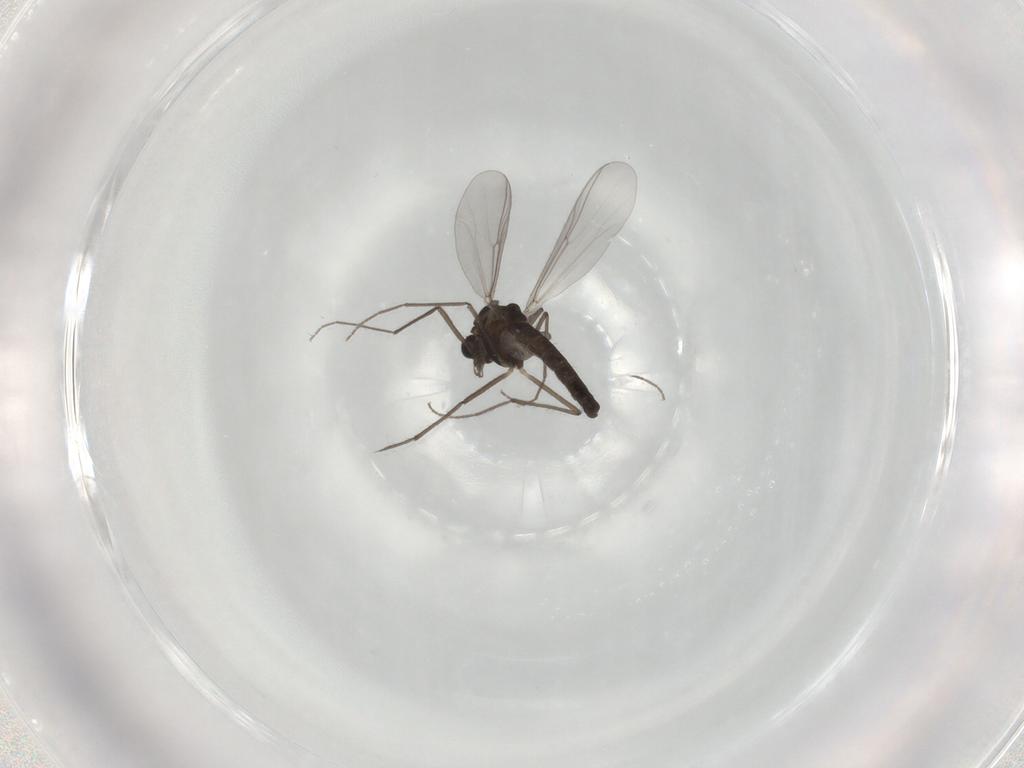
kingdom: Animalia
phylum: Arthropoda
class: Insecta
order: Diptera
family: Chironomidae
